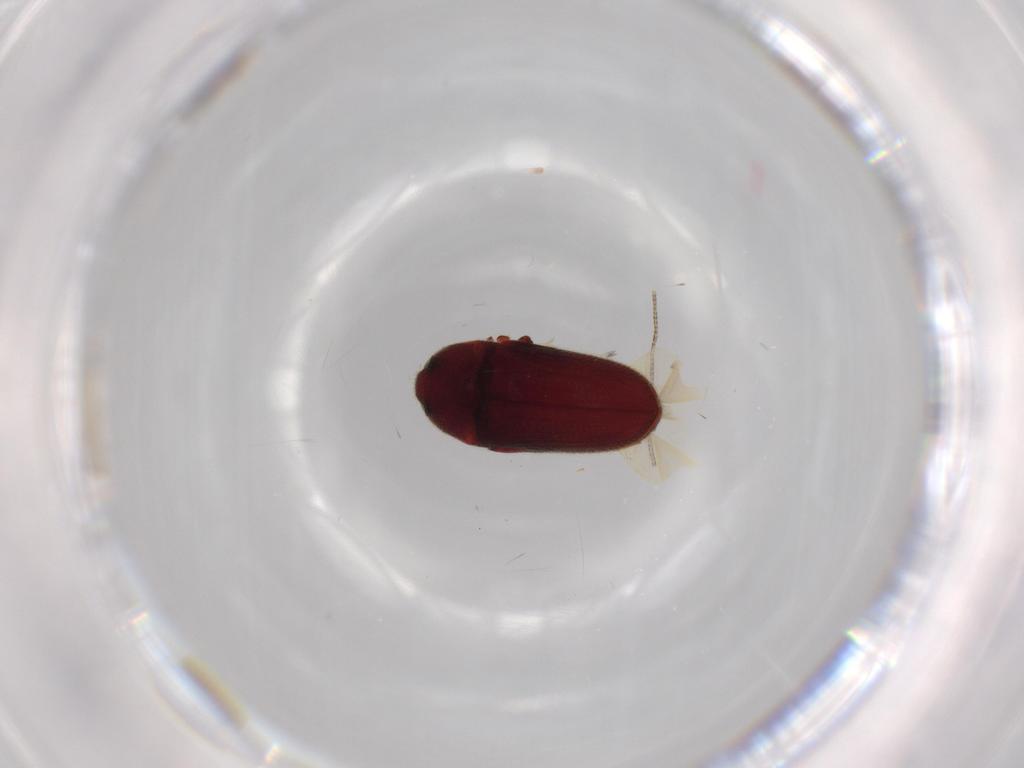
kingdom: Animalia
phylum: Arthropoda
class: Insecta
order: Coleoptera
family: Throscidae
